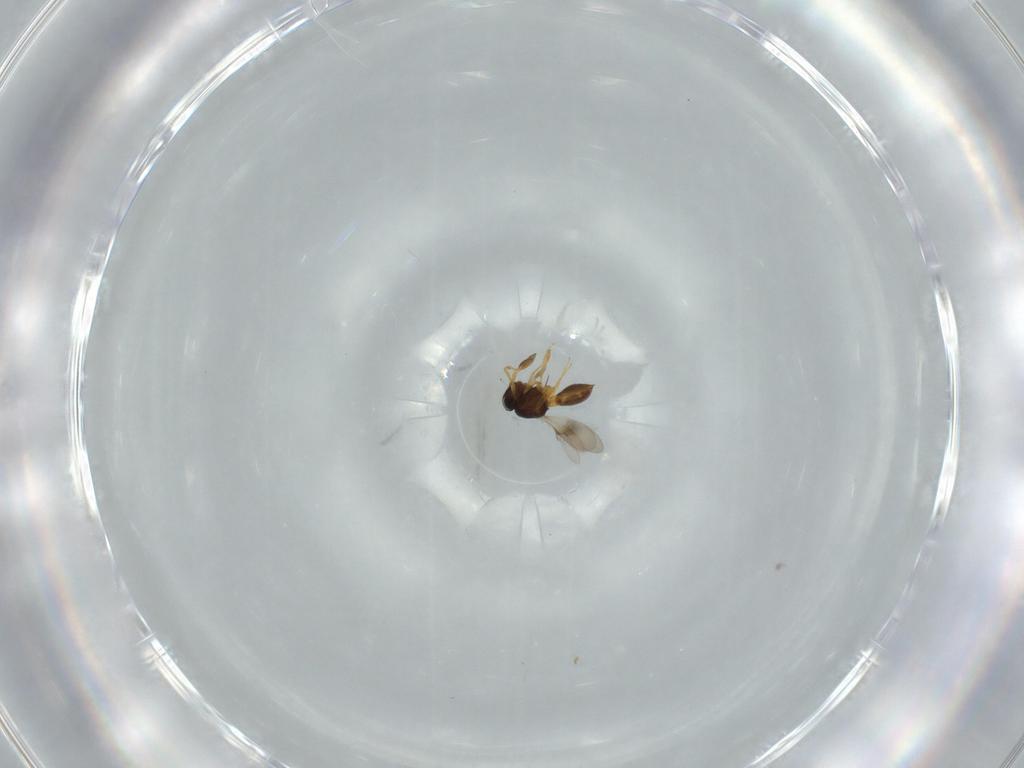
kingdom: Animalia
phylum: Arthropoda
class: Insecta
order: Hymenoptera
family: Scelionidae
